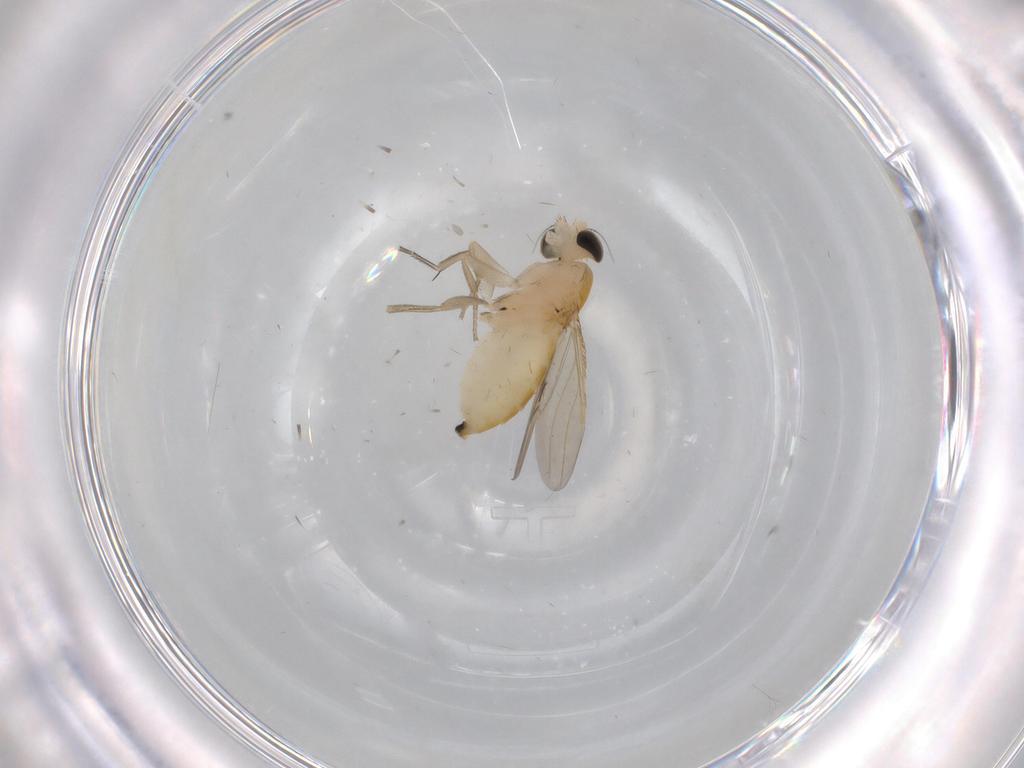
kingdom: Animalia
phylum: Arthropoda
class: Insecta
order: Diptera
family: Phoridae
